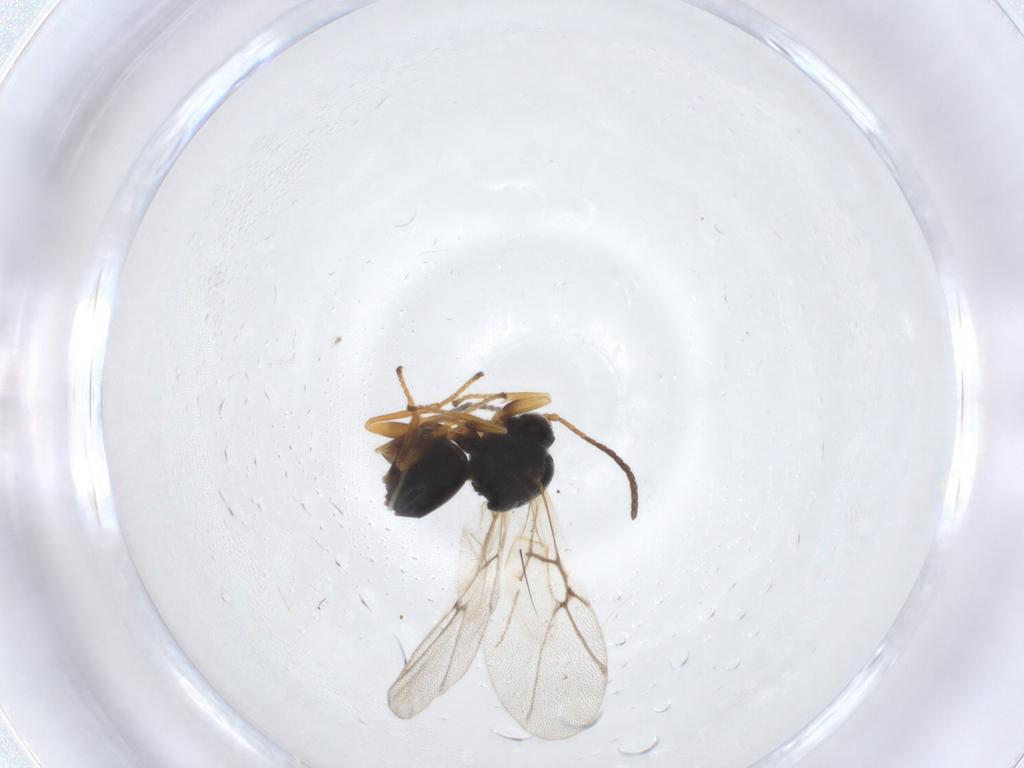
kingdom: Animalia
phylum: Arthropoda
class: Insecta
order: Hymenoptera
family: Cynipidae
